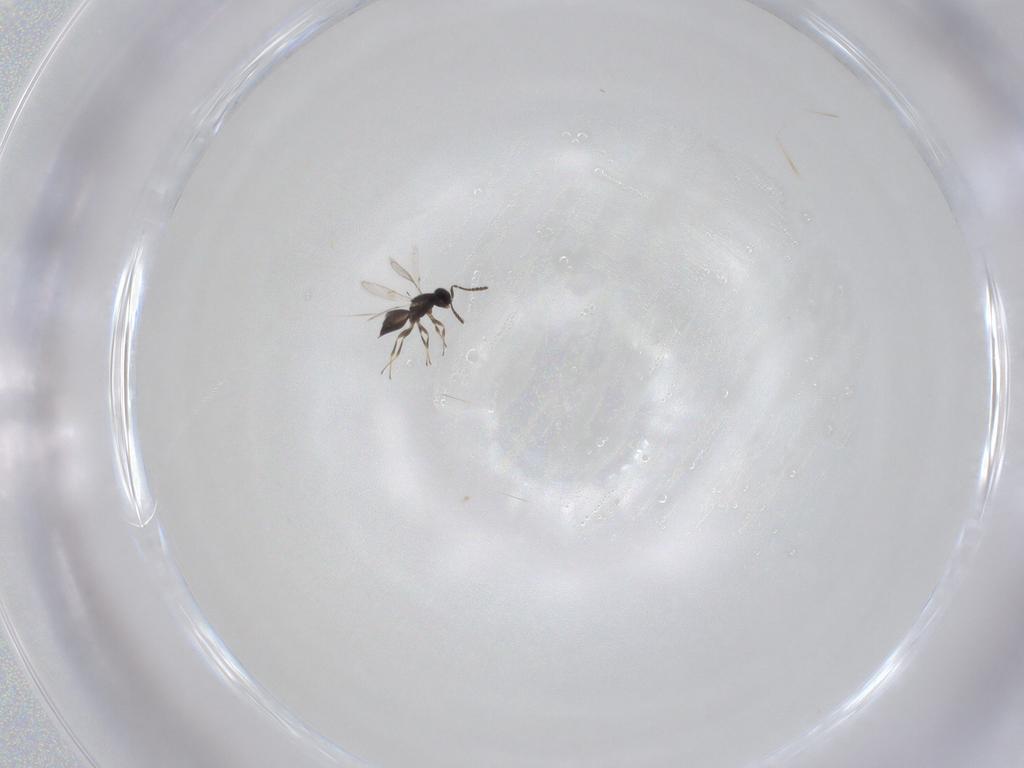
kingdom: Animalia
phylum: Arthropoda
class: Insecta
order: Hymenoptera
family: Scelionidae
